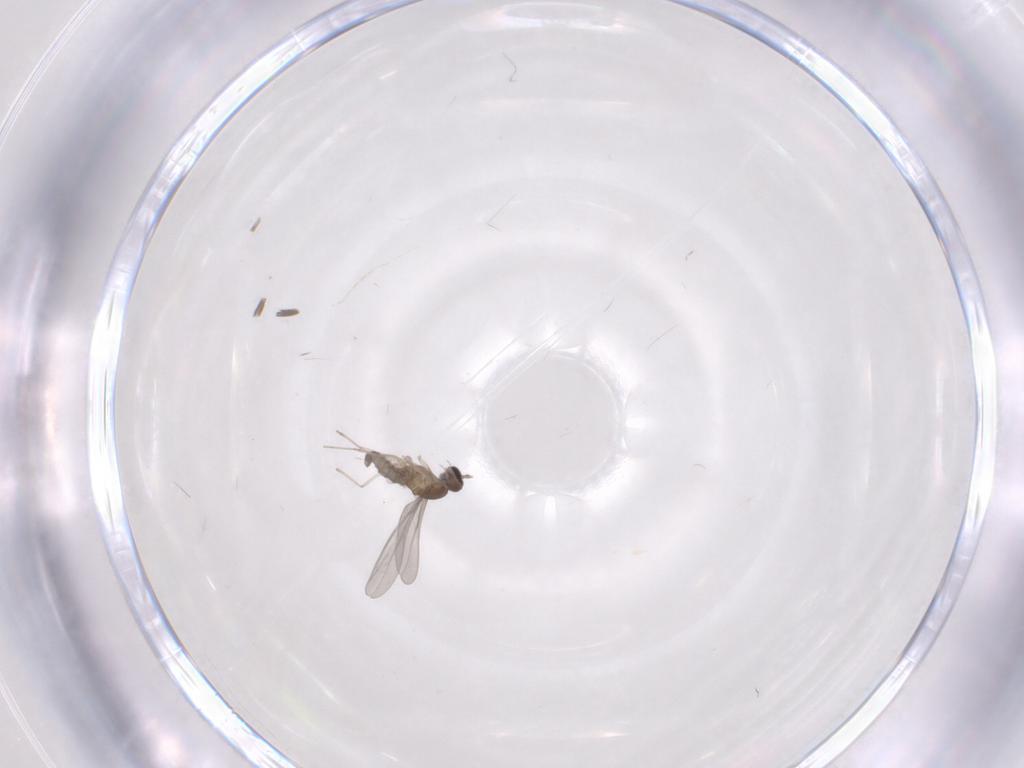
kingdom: Animalia
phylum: Arthropoda
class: Insecta
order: Diptera
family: Cecidomyiidae
